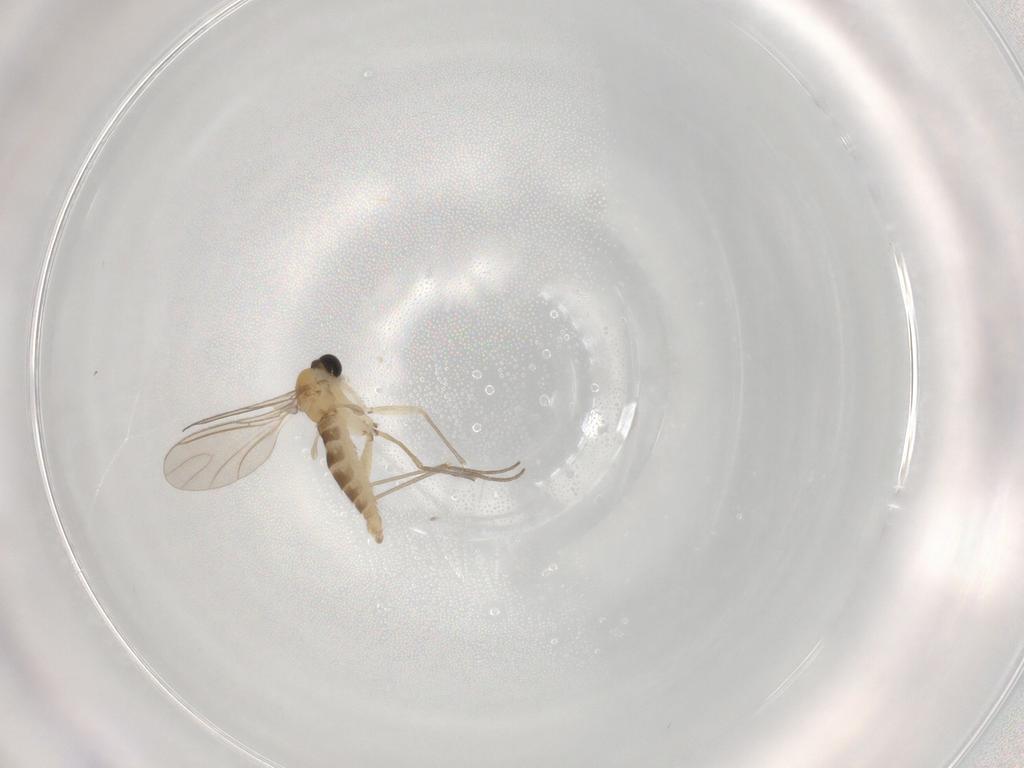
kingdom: Animalia
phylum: Arthropoda
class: Insecta
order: Diptera
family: Sciaridae
